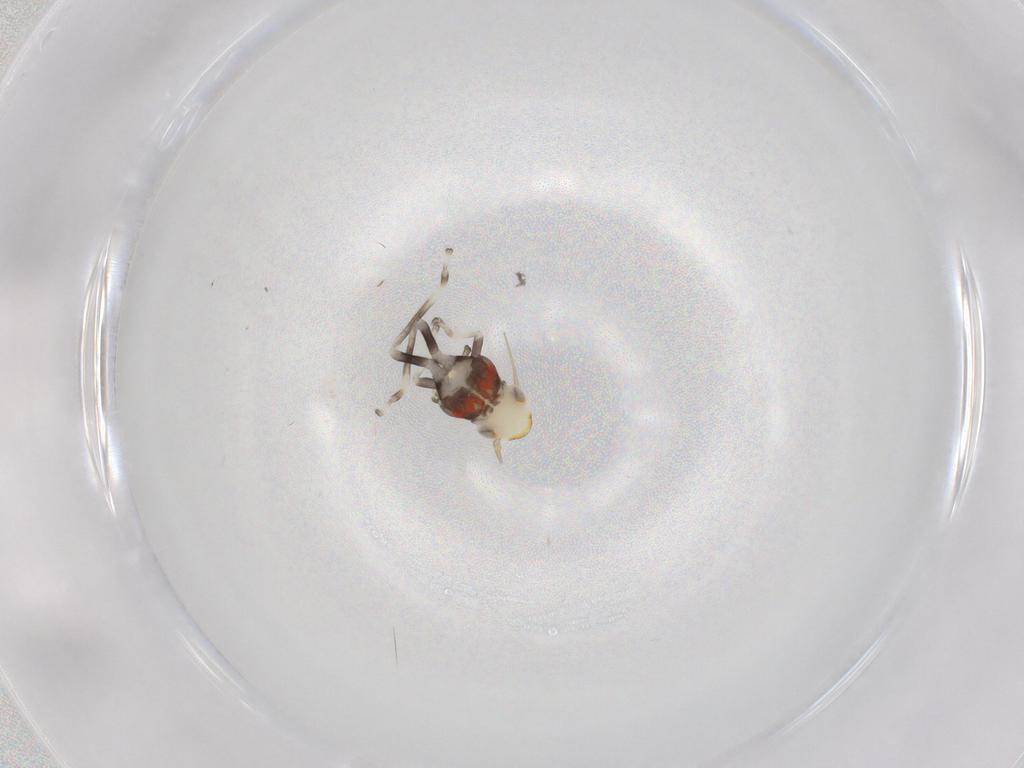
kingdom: Animalia
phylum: Arthropoda
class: Insecta
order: Hemiptera
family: Cicadellidae
